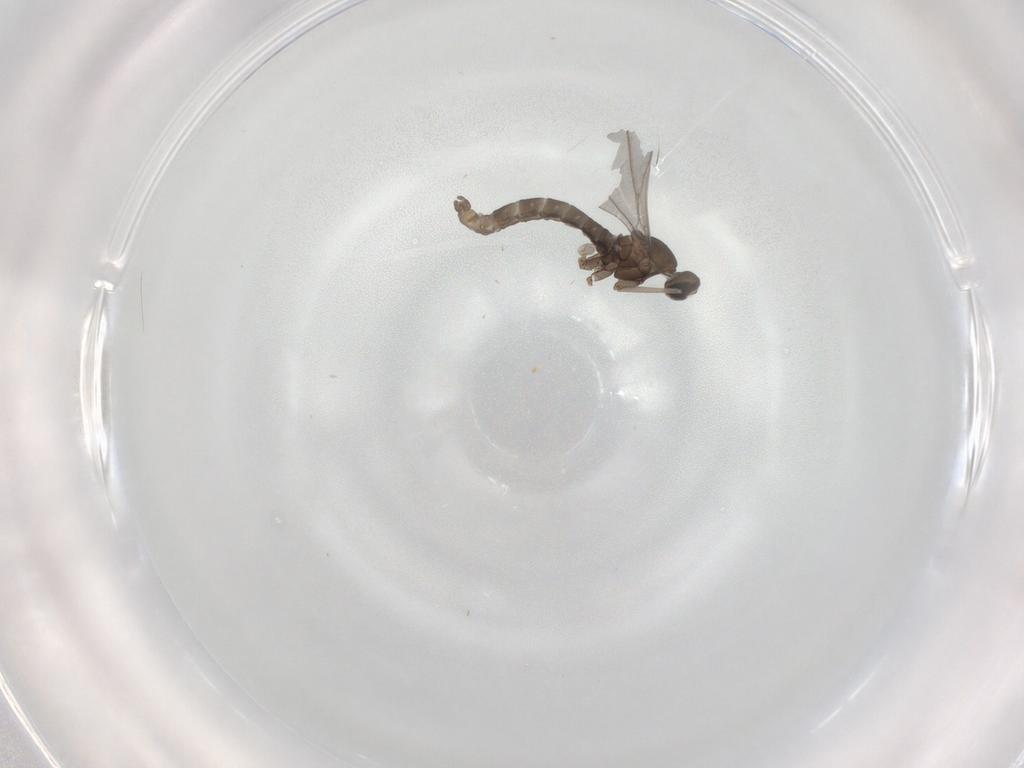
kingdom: Animalia
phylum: Arthropoda
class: Insecta
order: Diptera
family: Cecidomyiidae
